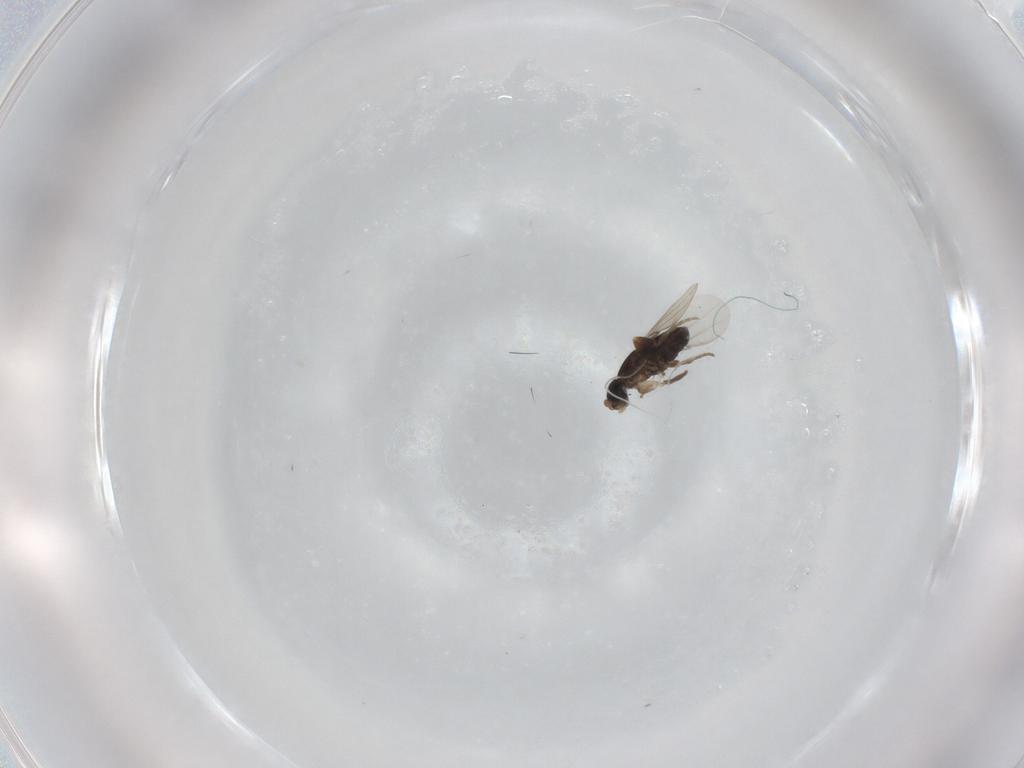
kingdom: Animalia
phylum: Arthropoda
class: Insecta
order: Diptera
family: Phoridae
